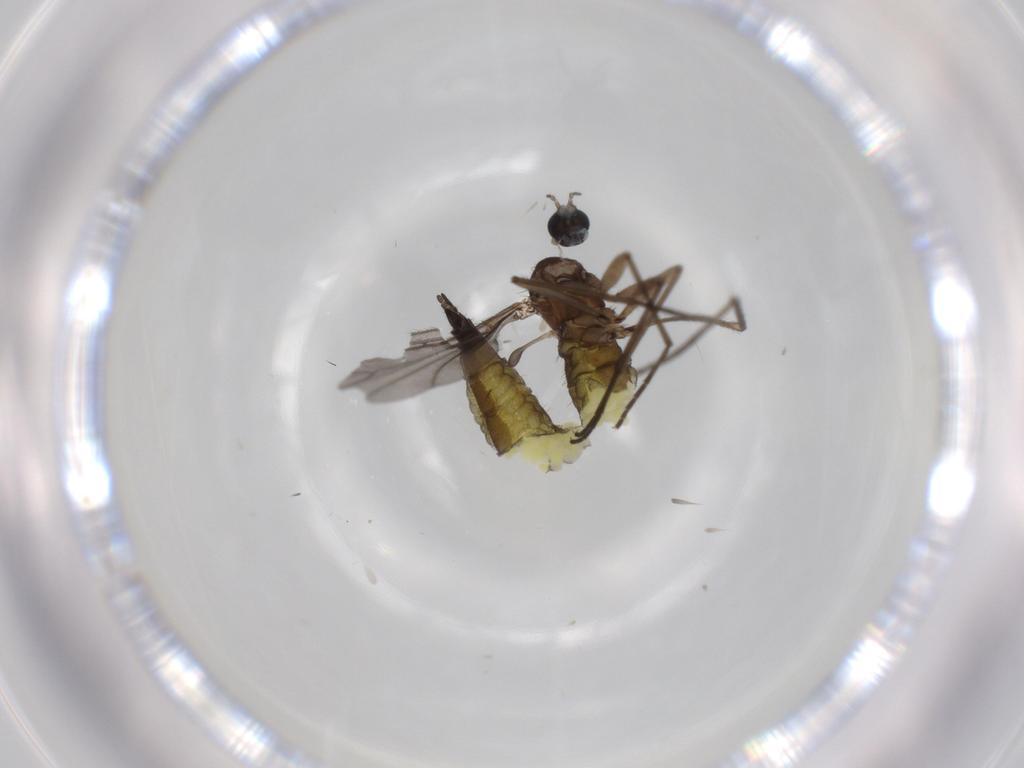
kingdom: Animalia
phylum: Arthropoda
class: Insecta
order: Diptera
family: Sciaridae
